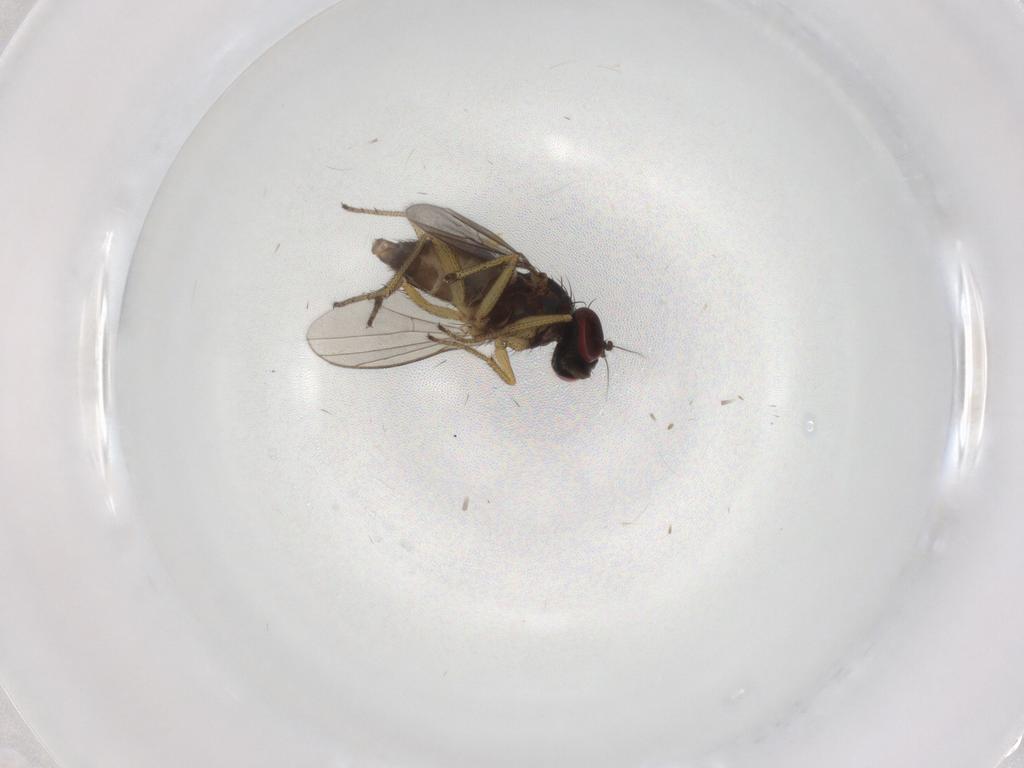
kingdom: Animalia
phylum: Arthropoda
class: Insecta
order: Diptera
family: Dolichopodidae
